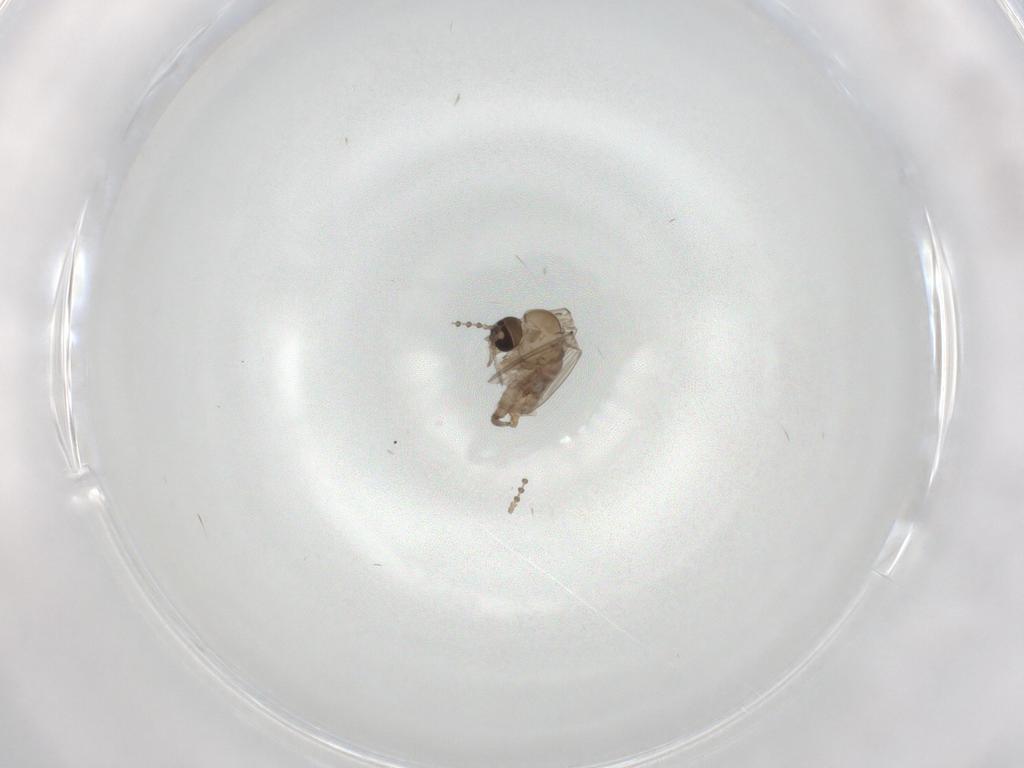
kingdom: Animalia
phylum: Arthropoda
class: Insecta
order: Diptera
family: Psychodidae
